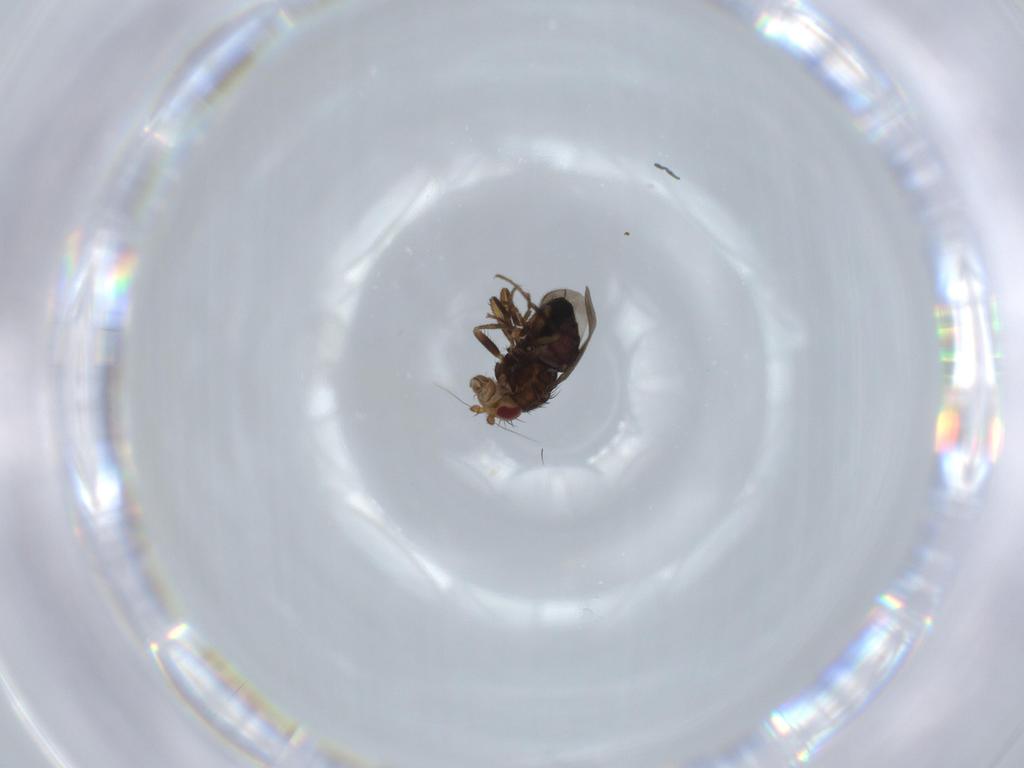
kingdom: Animalia
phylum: Arthropoda
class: Insecta
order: Diptera
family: Sphaeroceridae
